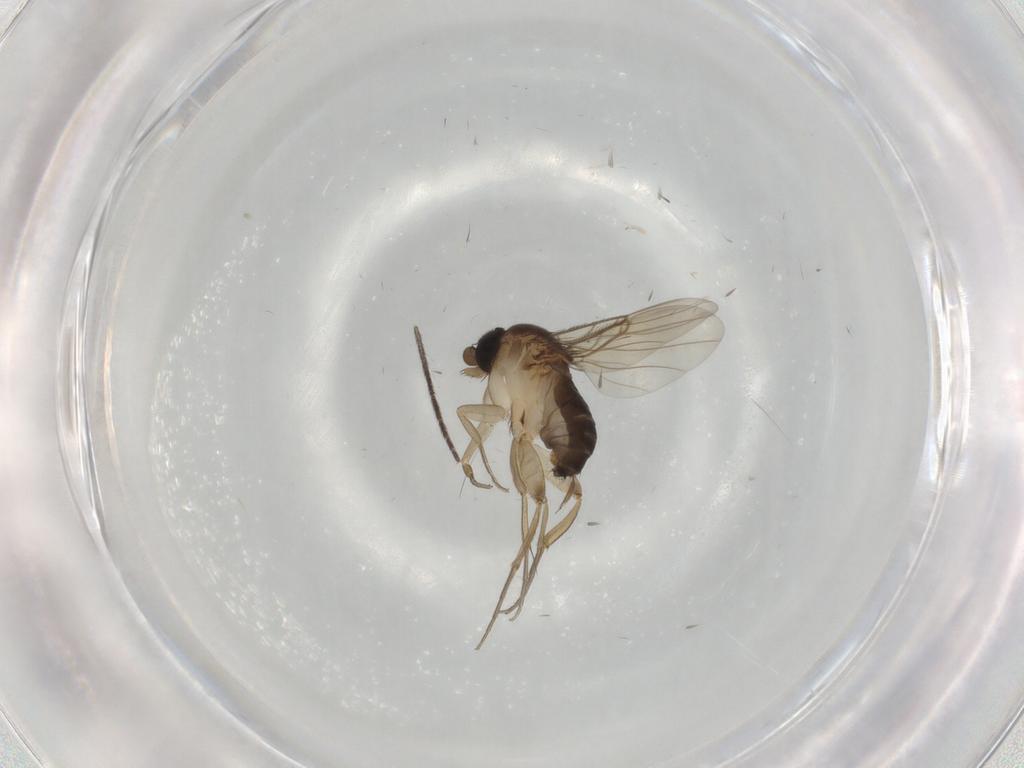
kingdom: Animalia
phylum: Arthropoda
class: Insecta
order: Diptera
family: Phoridae
